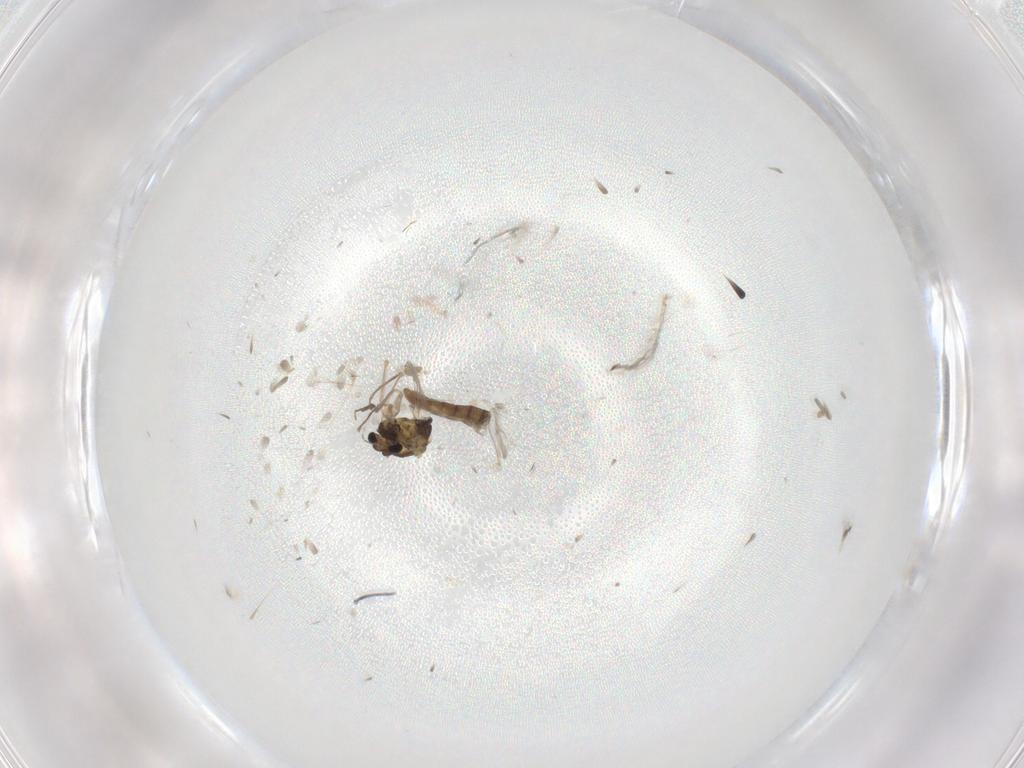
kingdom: Animalia
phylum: Arthropoda
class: Insecta
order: Diptera
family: Chironomidae
